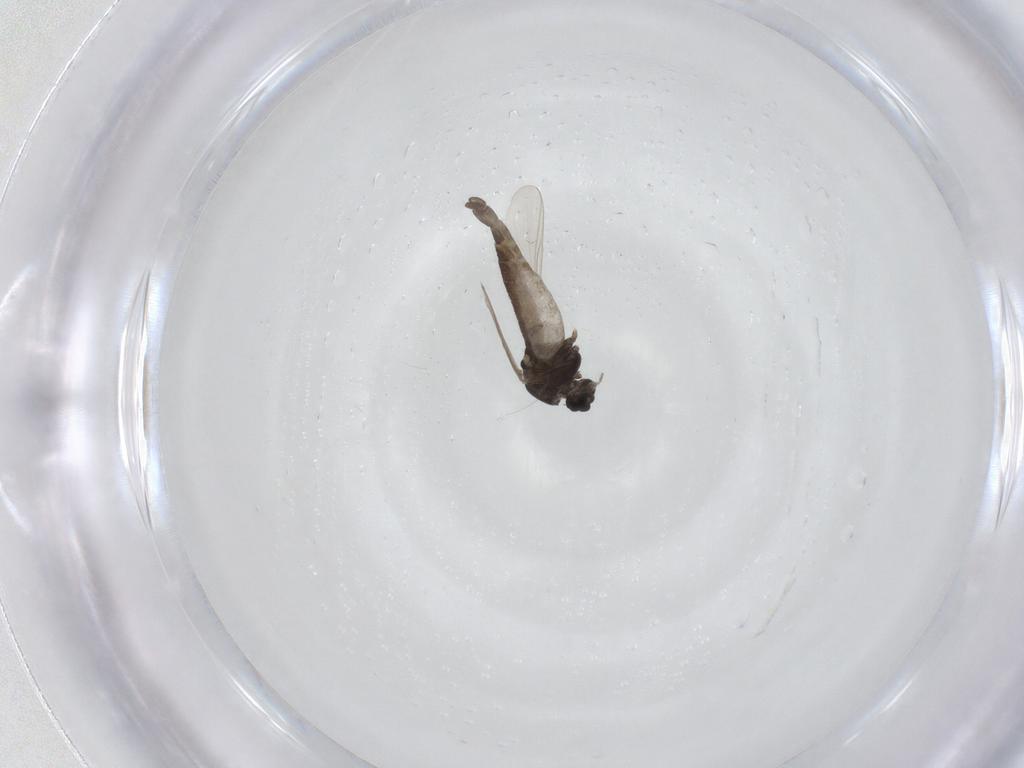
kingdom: Animalia
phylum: Arthropoda
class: Insecta
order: Diptera
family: Chironomidae
